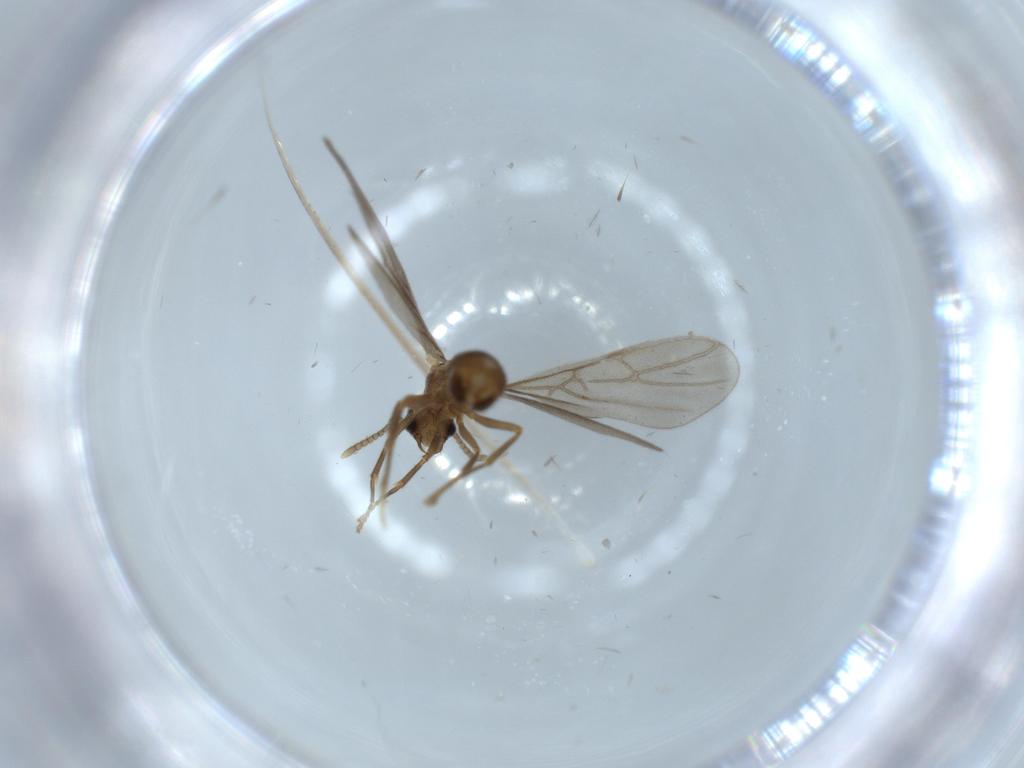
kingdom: Animalia
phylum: Arthropoda
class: Insecta
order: Hymenoptera
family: Formicidae
